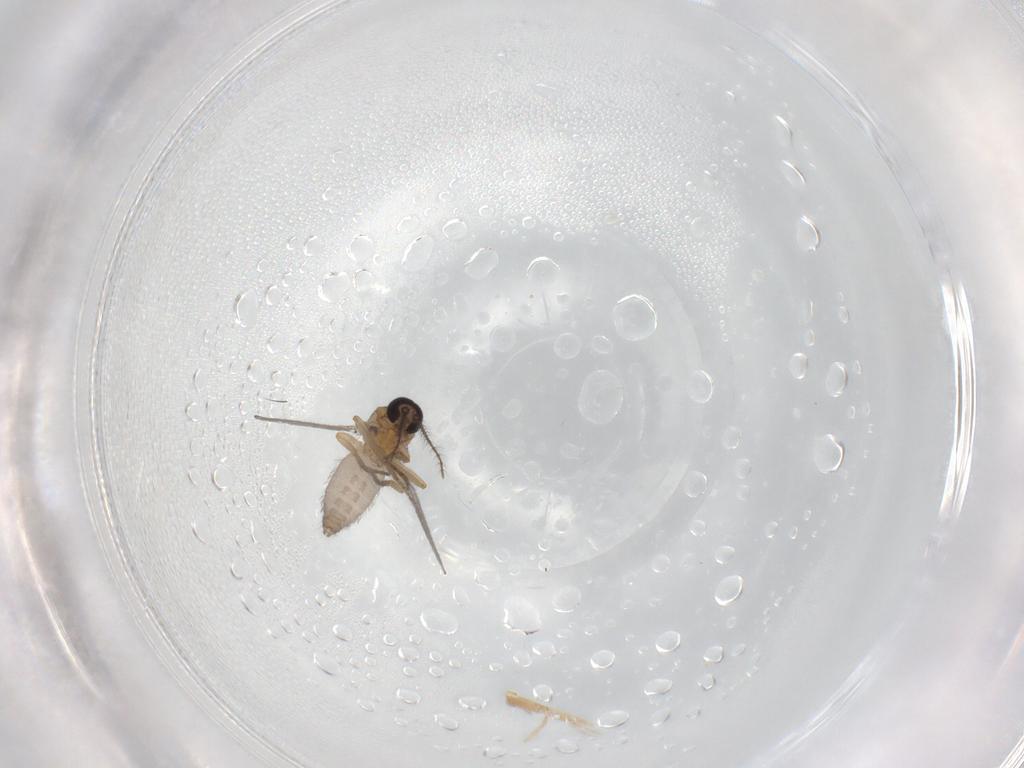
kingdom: Animalia
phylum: Arthropoda
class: Insecta
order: Diptera
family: Ceratopogonidae
